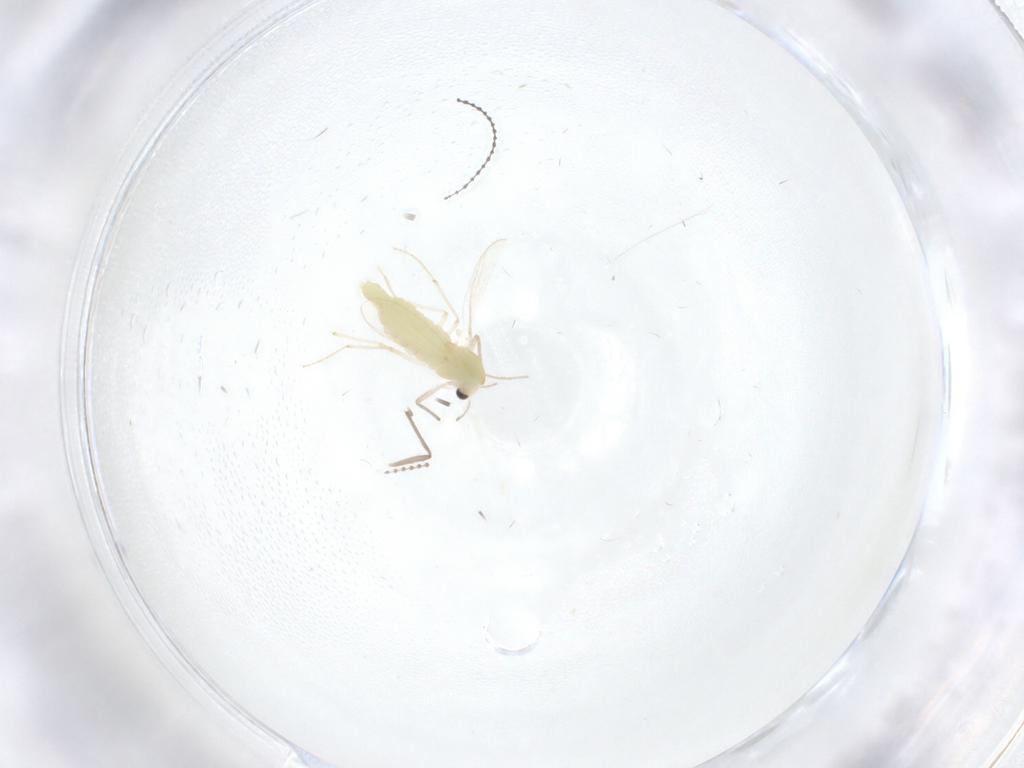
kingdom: Animalia
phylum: Arthropoda
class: Insecta
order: Diptera
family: Chironomidae
